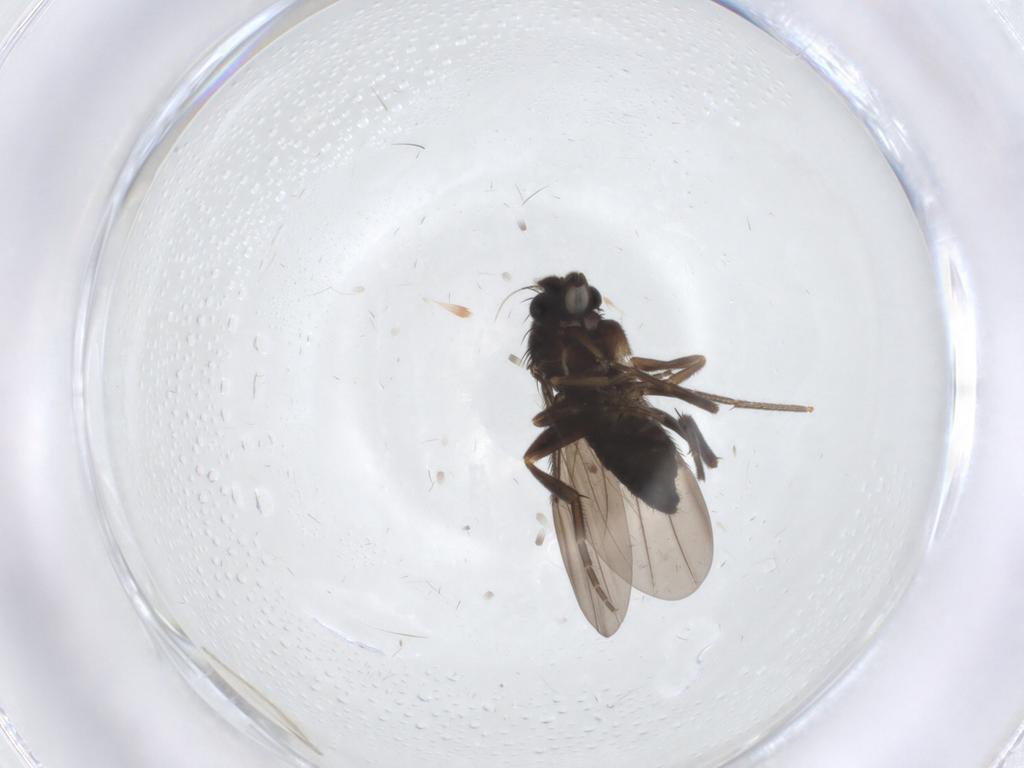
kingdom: Animalia
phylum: Arthropoda
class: Insecta
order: Diptera
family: Phoridae
